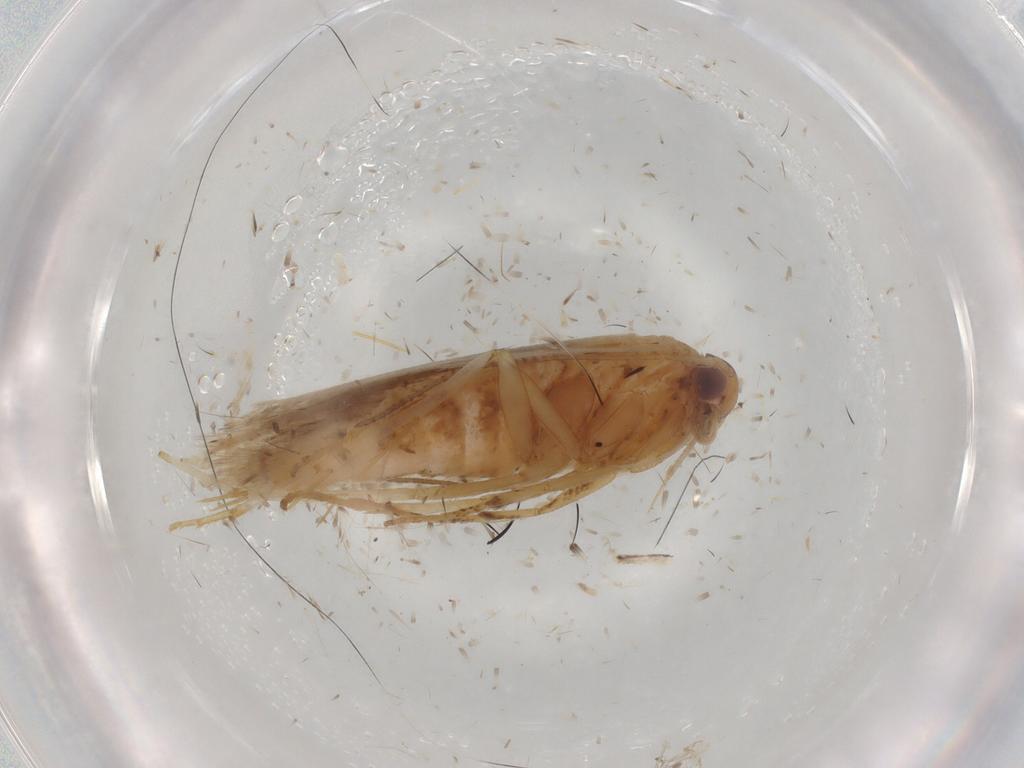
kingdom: Animalia
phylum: Arthropoda
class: Insecta
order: Lepidoptera
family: Gelechiidae
